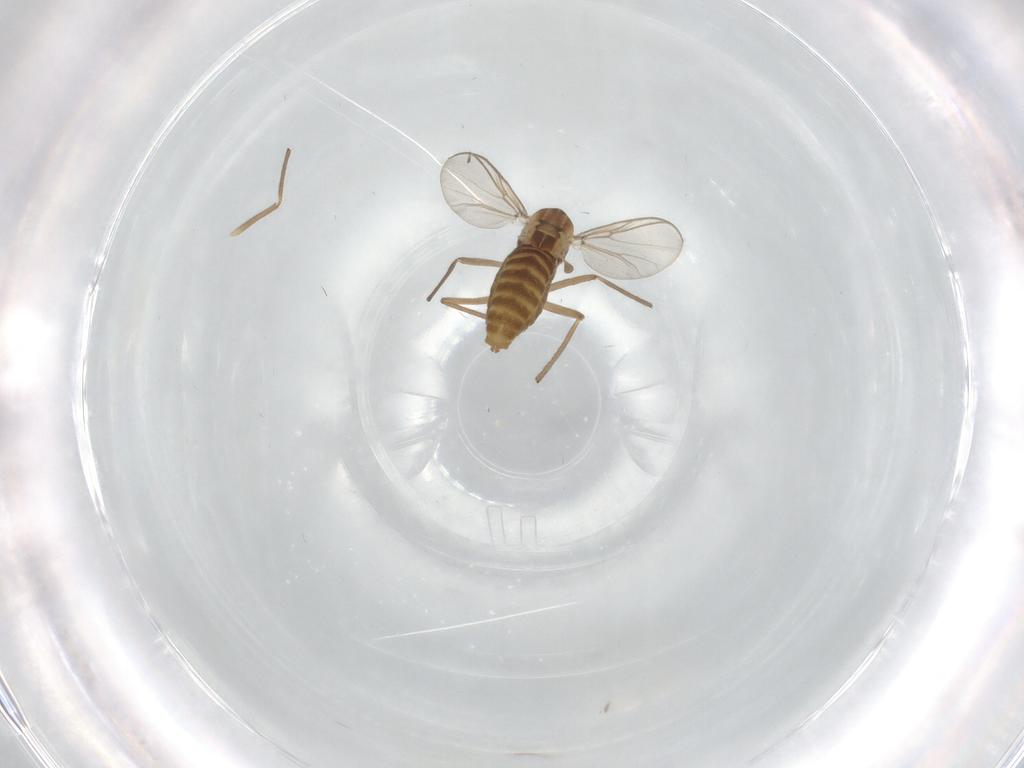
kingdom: Animalia
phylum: Arthropoda
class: Insecta
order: Diptera
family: Chironomidae
